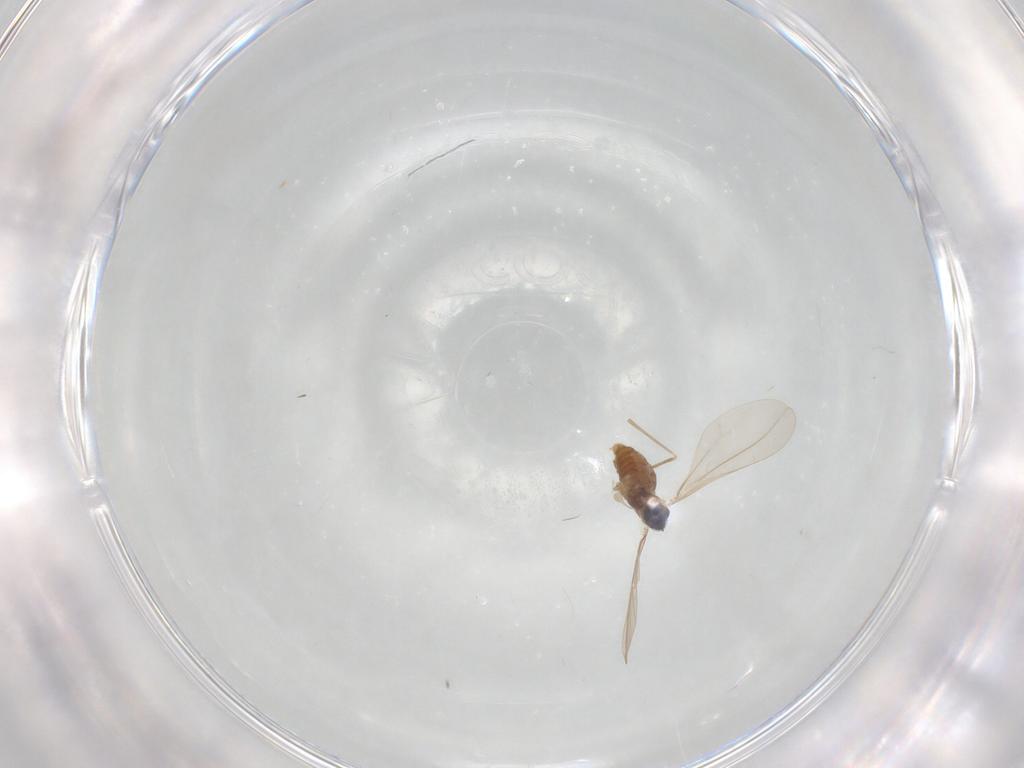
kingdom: Animalia
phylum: Arthropoda
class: Insecta
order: Diptera
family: Cecidomyiidae
